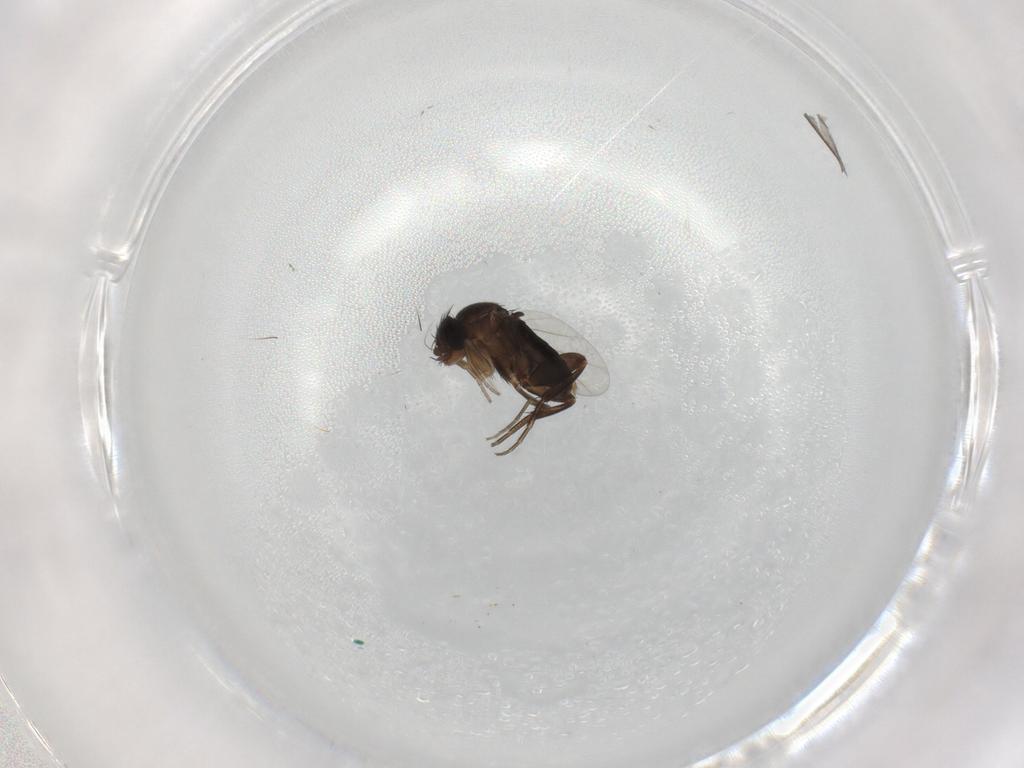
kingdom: Animalia
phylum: Arthropoda
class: Insecta
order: Diptera
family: Phoridae
